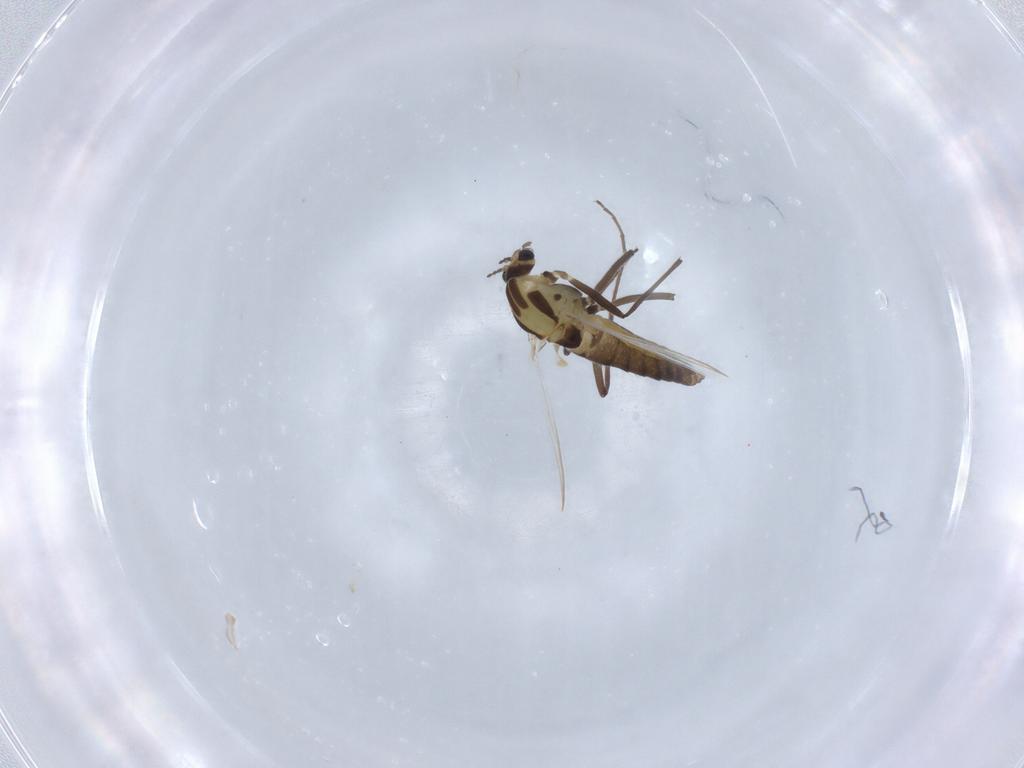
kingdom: Animalia
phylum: Arthropoda
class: Insecta
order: Diptera
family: Chironomidae
